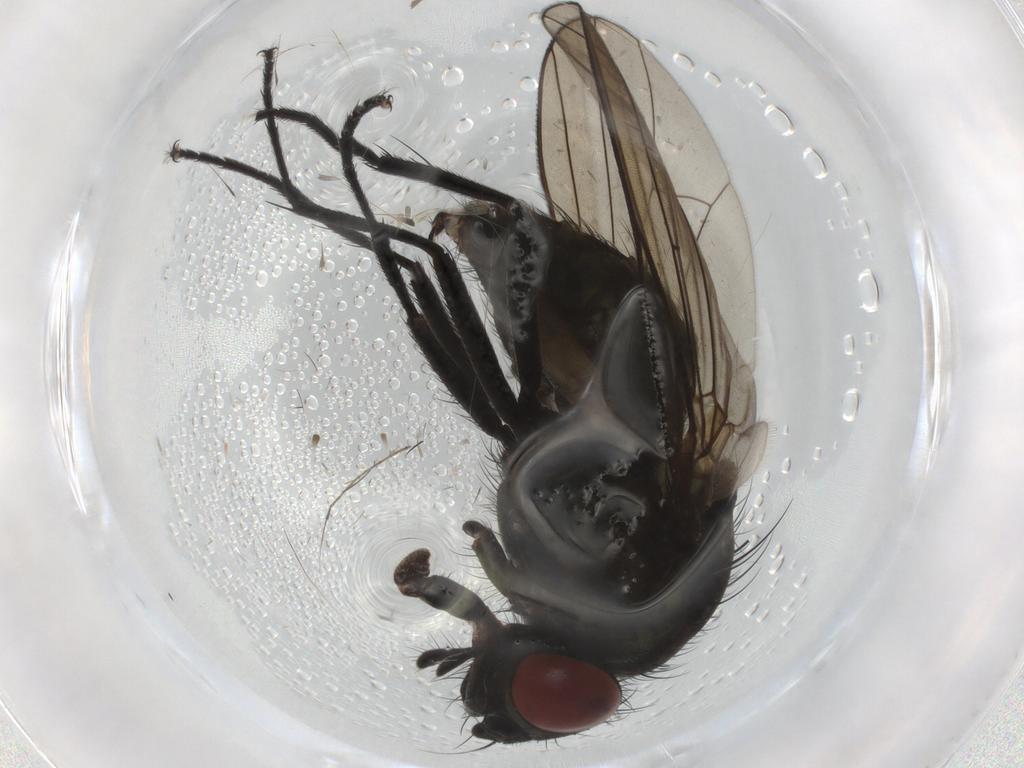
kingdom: Animalia
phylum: Arthropoda
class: Insecta
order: Diptera
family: Anthomyiidae
